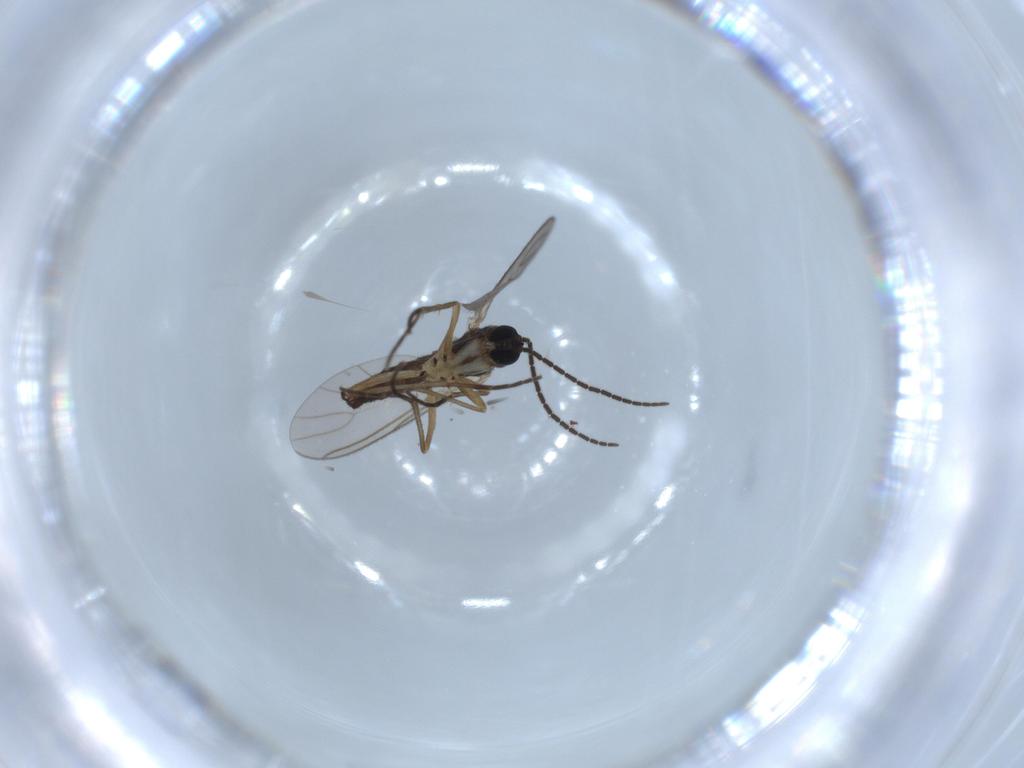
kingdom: Animalia
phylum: Arthropoda
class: Insecta
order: Diptera
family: Sciaridae
